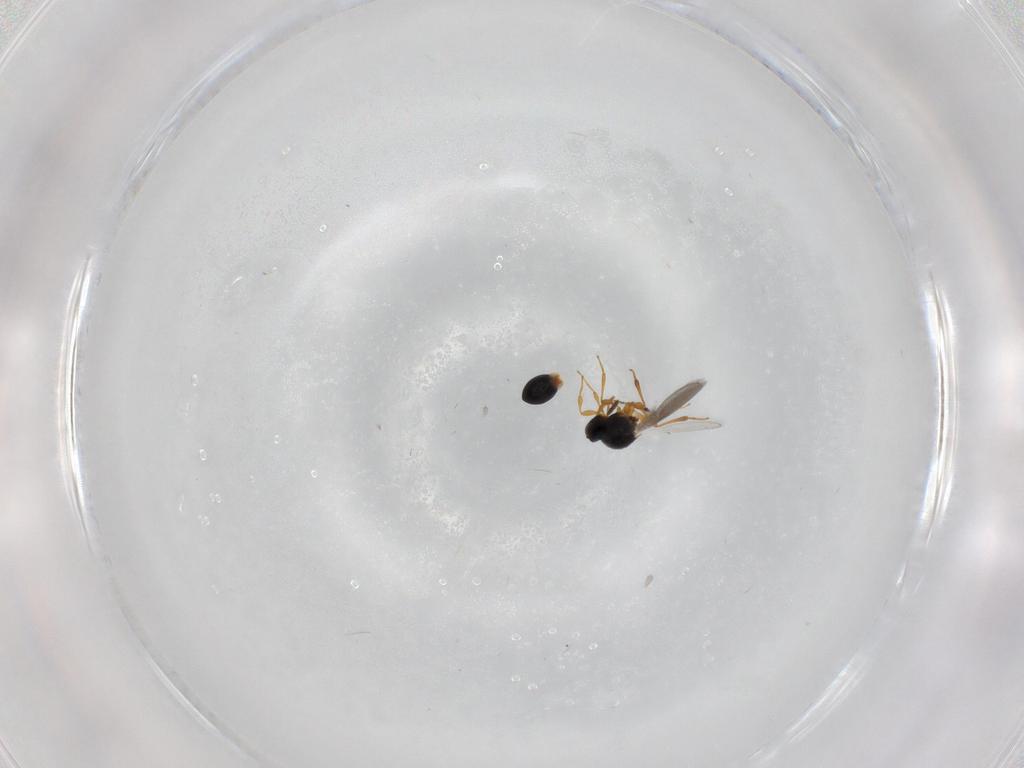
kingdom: Animalia
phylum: Arthropoda
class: Insecta
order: Hymenoptera
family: Platygastridae
